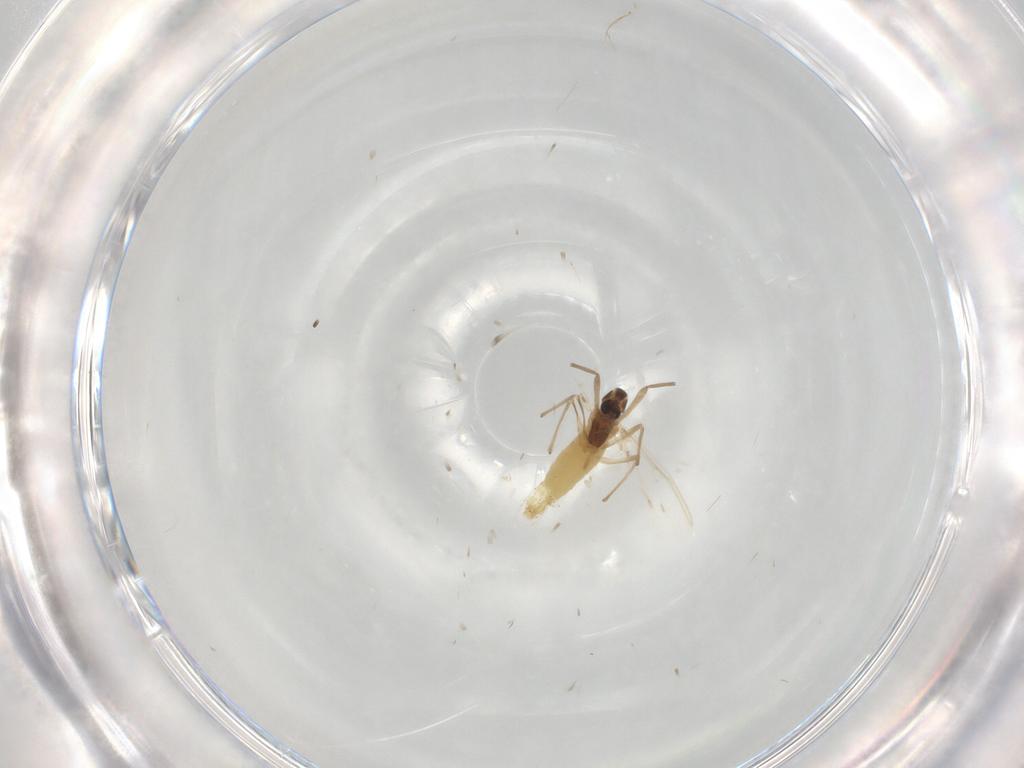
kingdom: Animalia
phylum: Arthropoda
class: Insecta
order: Diptera
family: Chironomidae
